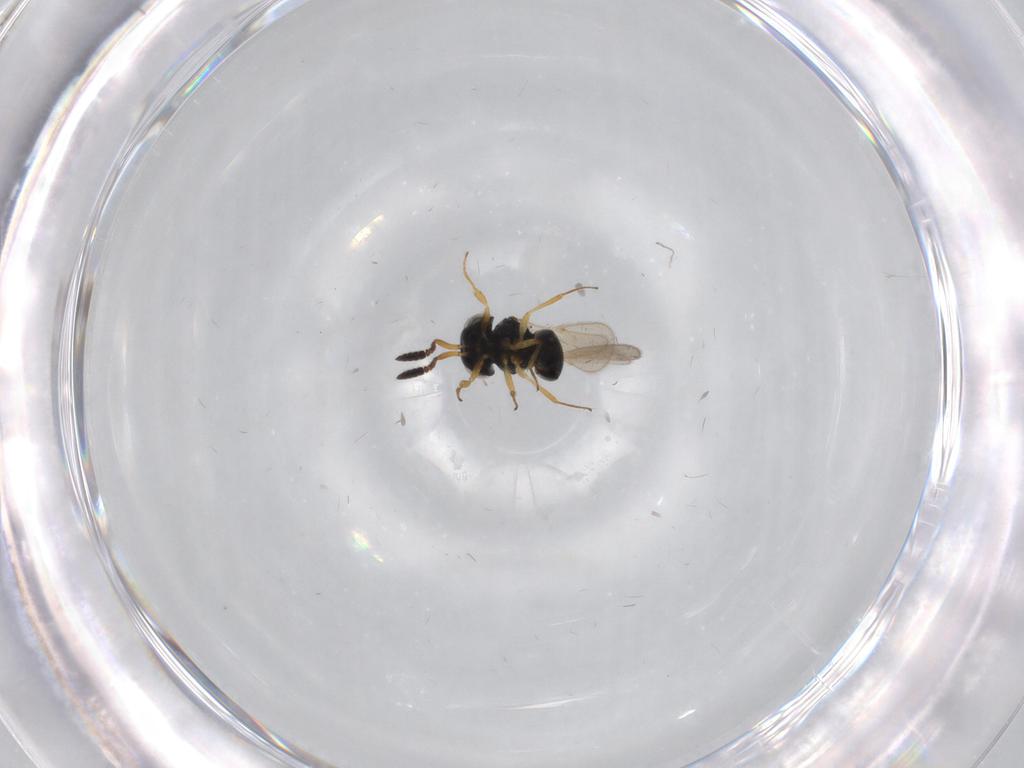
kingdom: Animalia
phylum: Arthropoda
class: Insecta
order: Hymenoptera
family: Scelionidae
